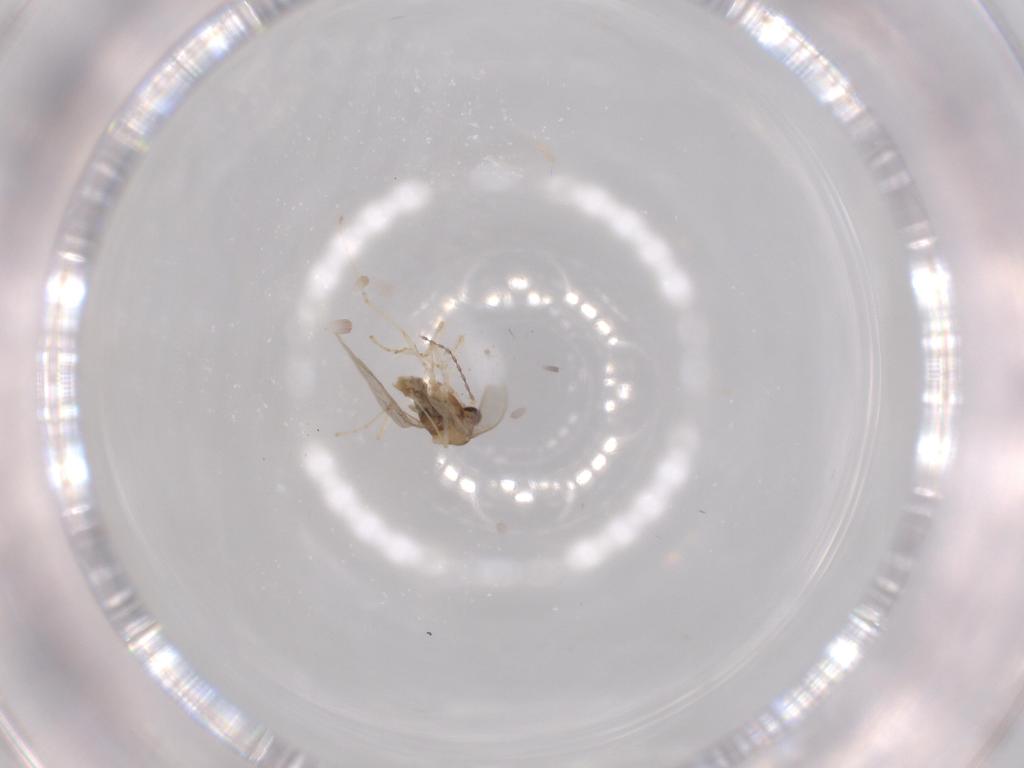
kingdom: Animalia
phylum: Arthropoda
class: Insecta
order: Diptera
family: Cecidomyiidae
